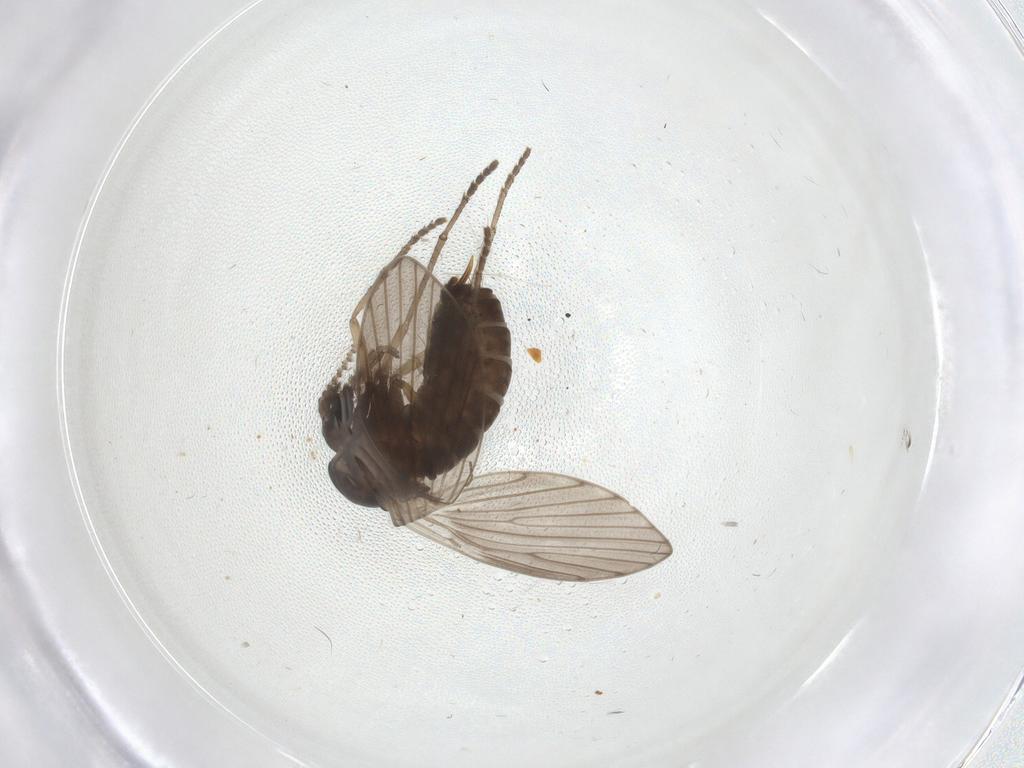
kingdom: Animalia
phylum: Arthropoda
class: Insecta
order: Diptera
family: Psychodidae
